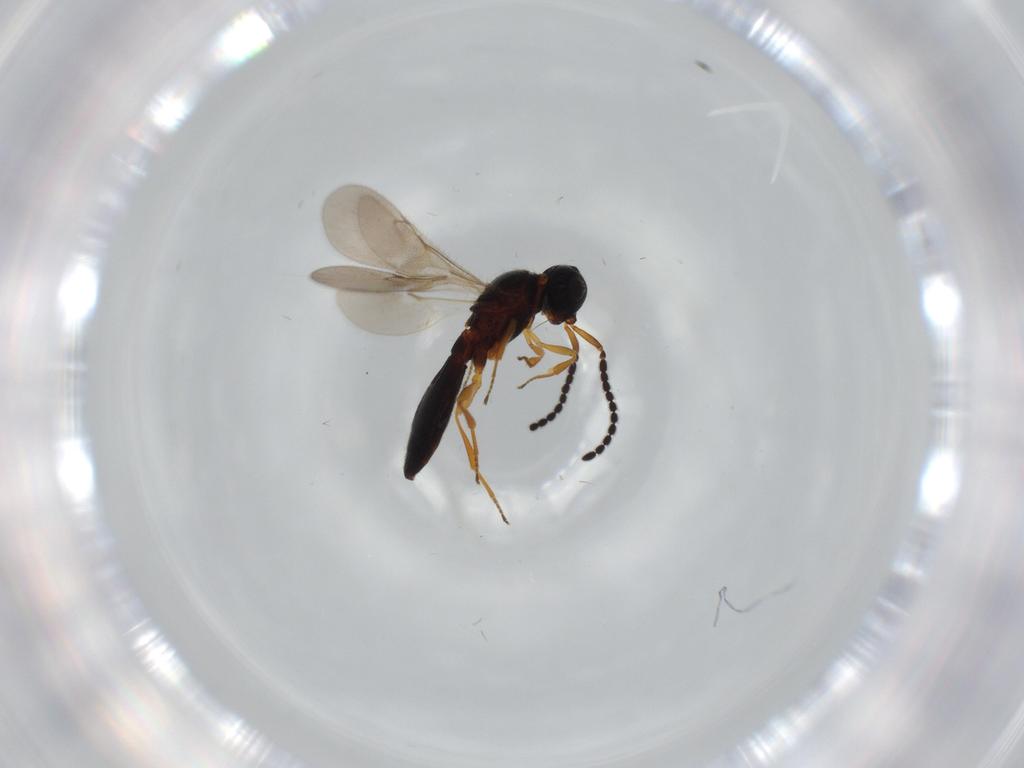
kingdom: Animalia
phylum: Arthropoda
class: Insecta
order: Hymenoptera
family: Scelionidae
